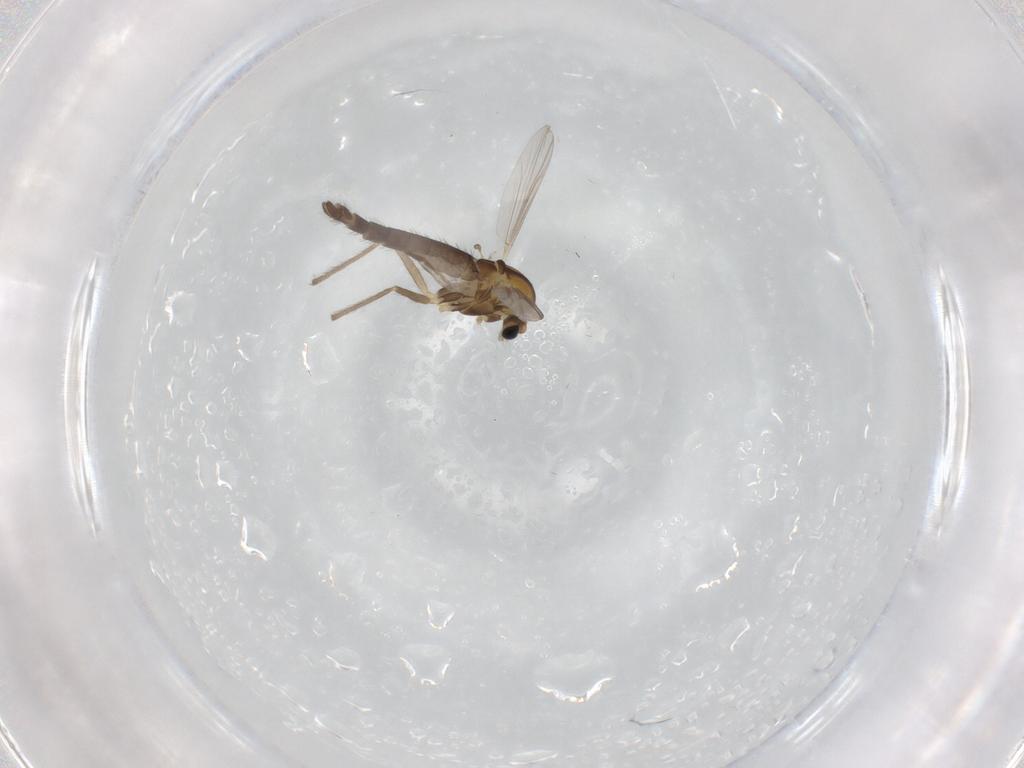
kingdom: Animalia
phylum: Arthropoda
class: Insecta
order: Diptera
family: Chironomidae
